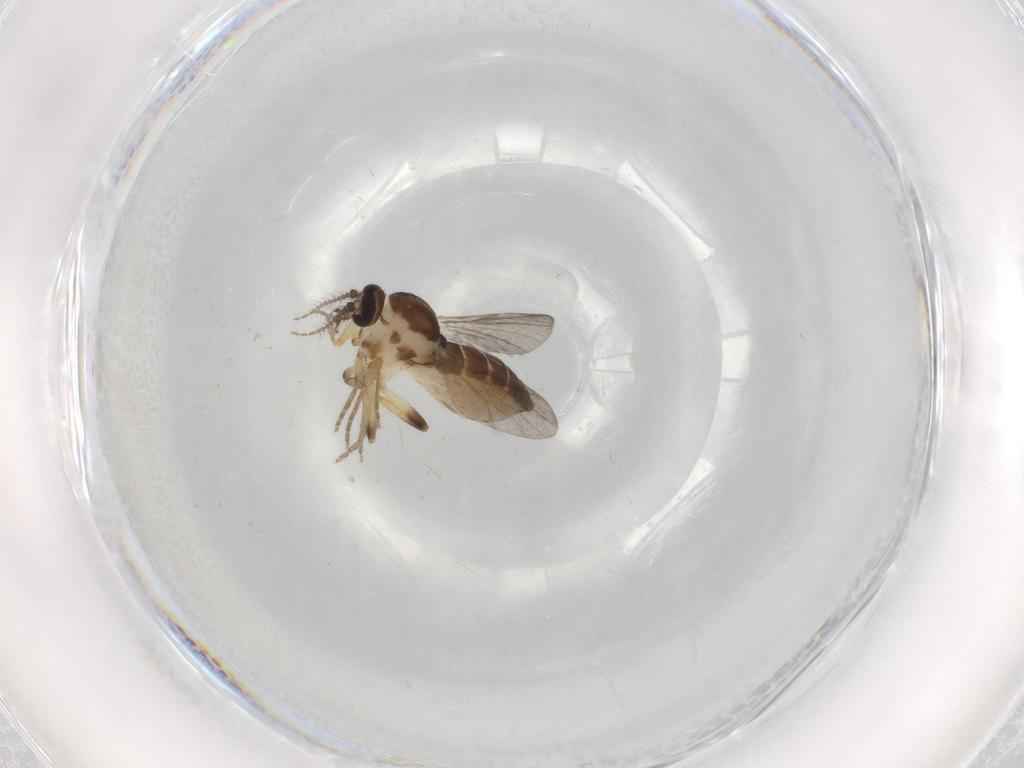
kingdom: Animalia
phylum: Arthropoda
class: Insecta
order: Diptera
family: Ceratopogonidae
